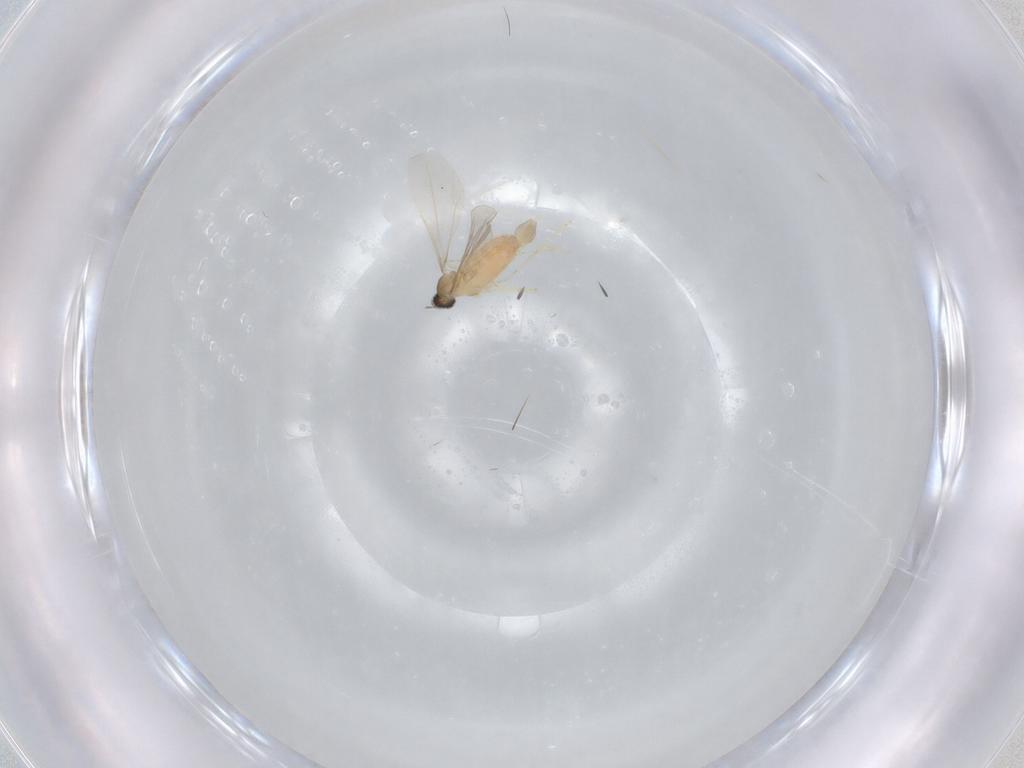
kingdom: Animalia
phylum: Arthropoda
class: Insecta
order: Diptera
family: Cecidomyiidae
